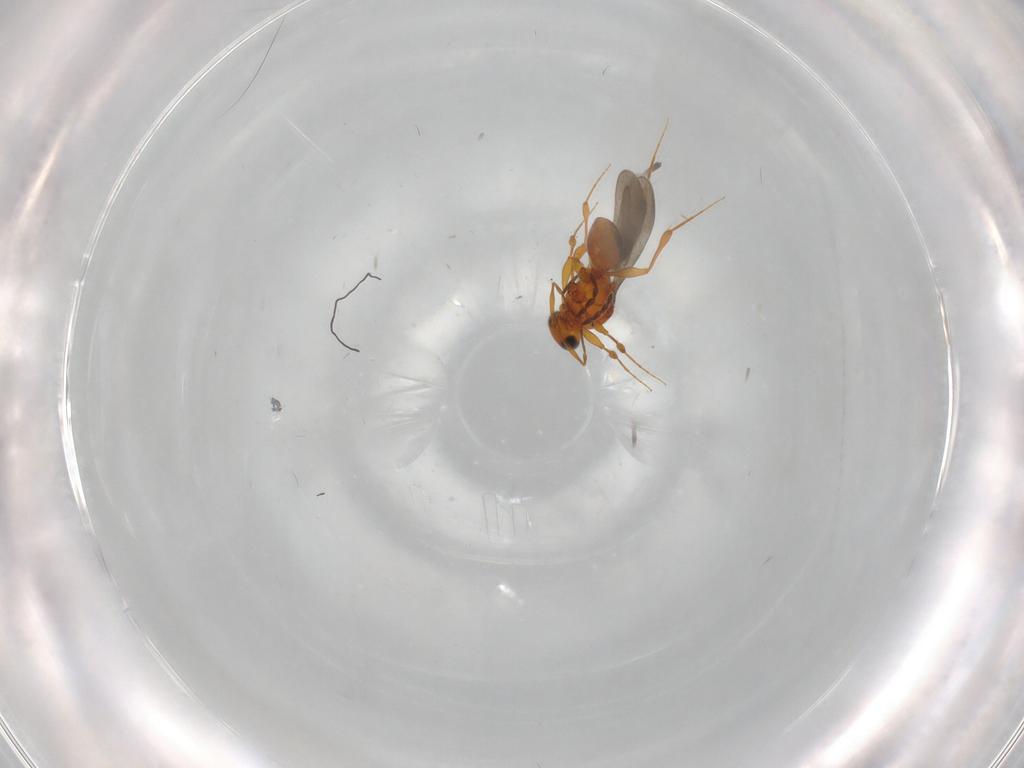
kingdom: Animalia
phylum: Arthropoda
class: Insecta
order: Hymenoptera
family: Platygastridae
